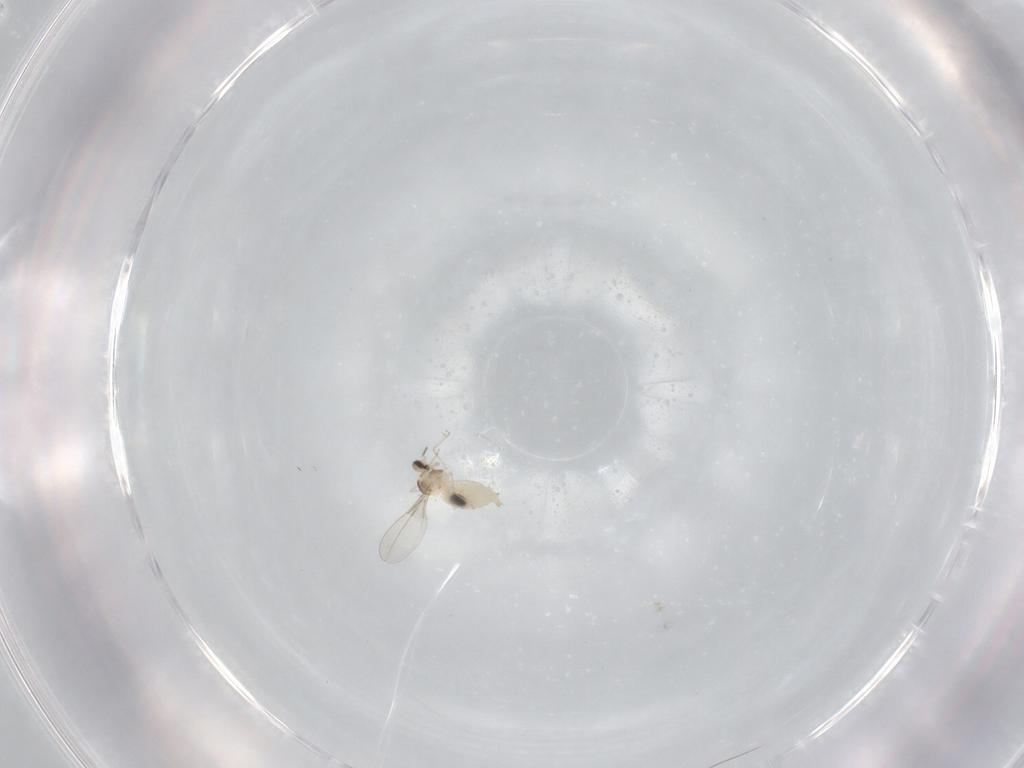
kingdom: Animalia
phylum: Arthropoda
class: Insecta
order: Diptera
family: Cecidomyiidae
